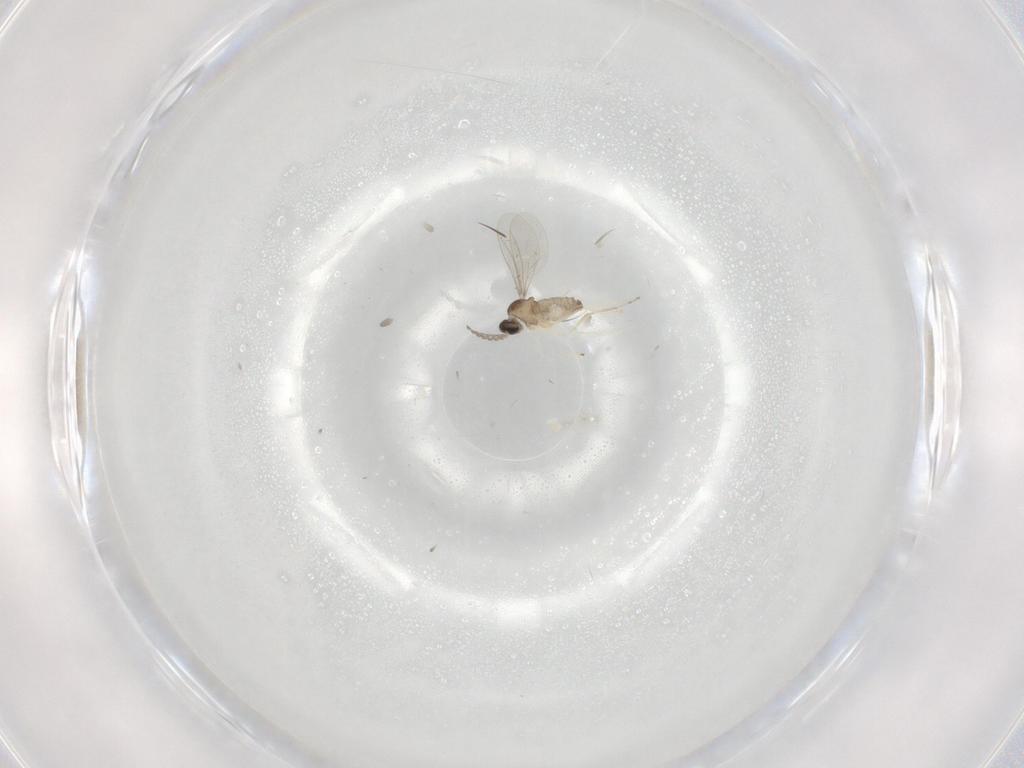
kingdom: Animalia
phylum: Arthropoda
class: Insecta
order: Diptera
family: Cecidomyiidae
